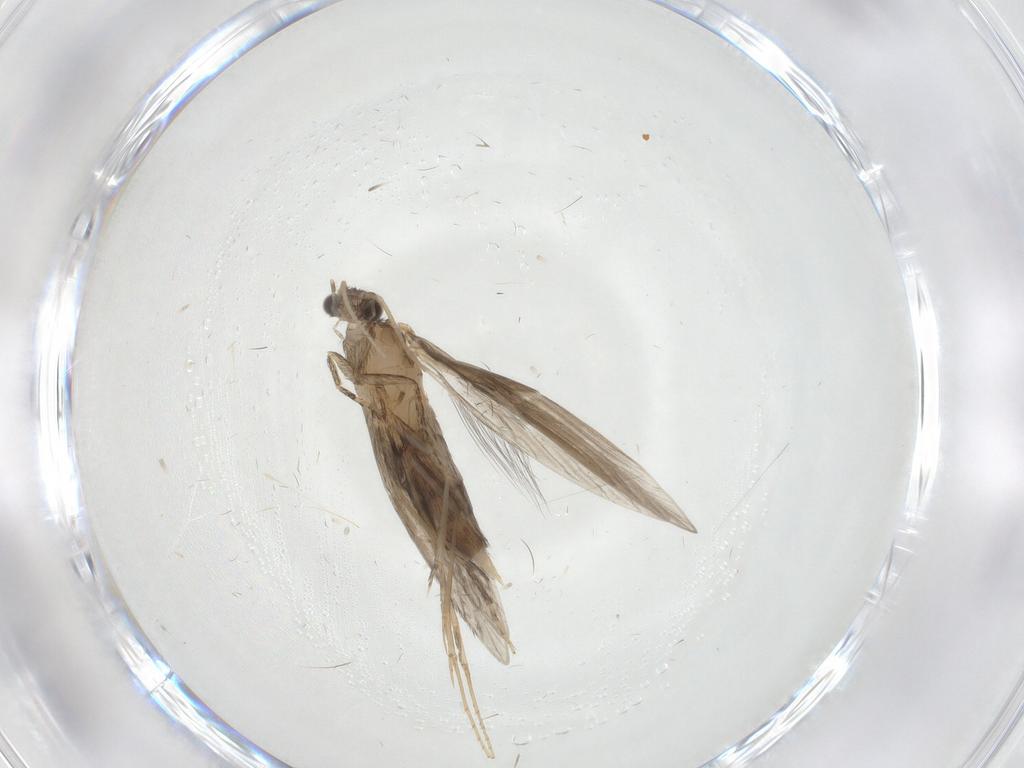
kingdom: Animalia
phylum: Arthropoda
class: Insecta
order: Trichoptera
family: Hydroptilidae
